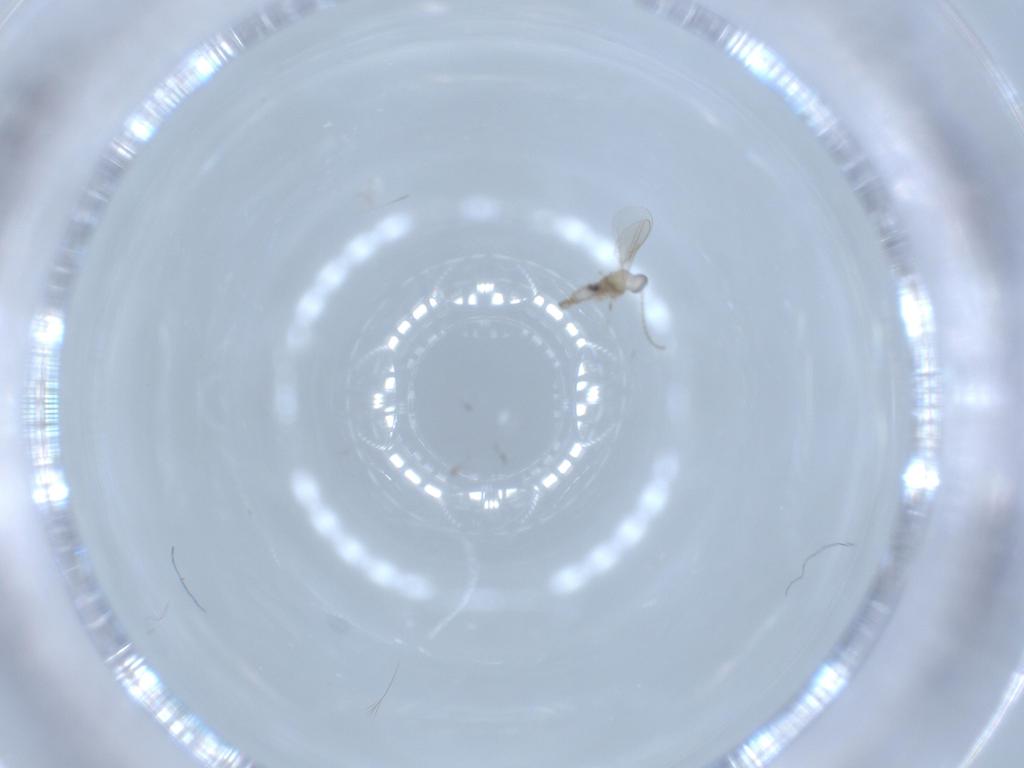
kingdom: Animalia
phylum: Arthropoda
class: Insecta
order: Diptera
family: Cecidomyiidae
